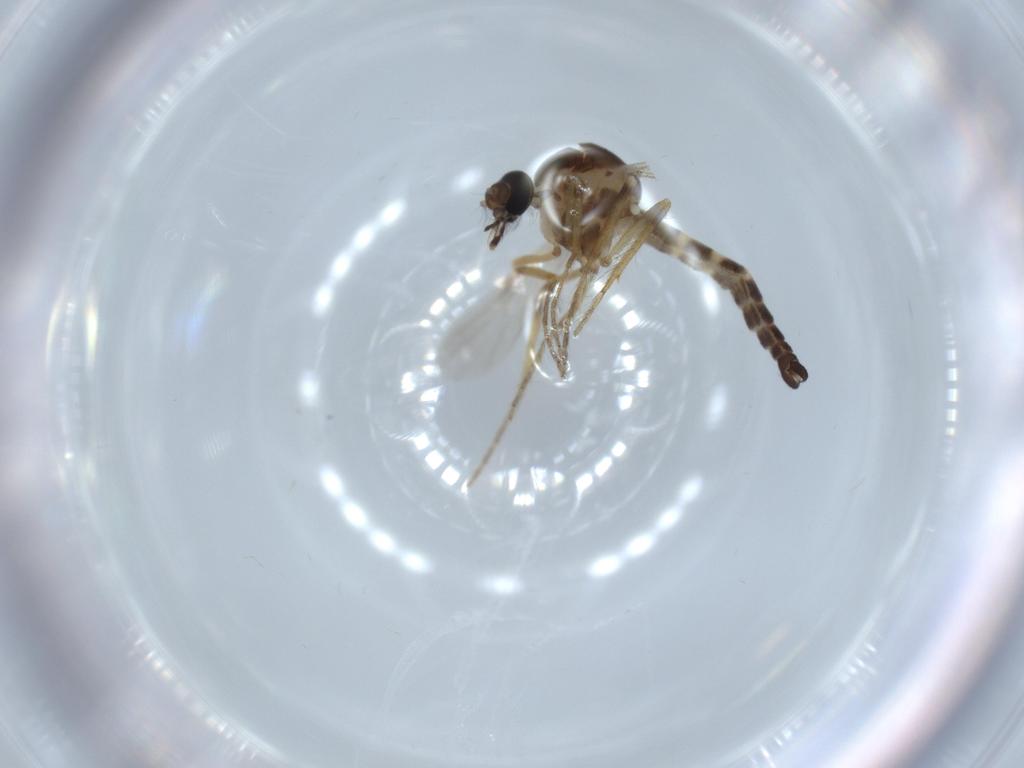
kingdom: Animalia
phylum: Arthropoda
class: Insecta
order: Diptera
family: Ceratopogonidae
